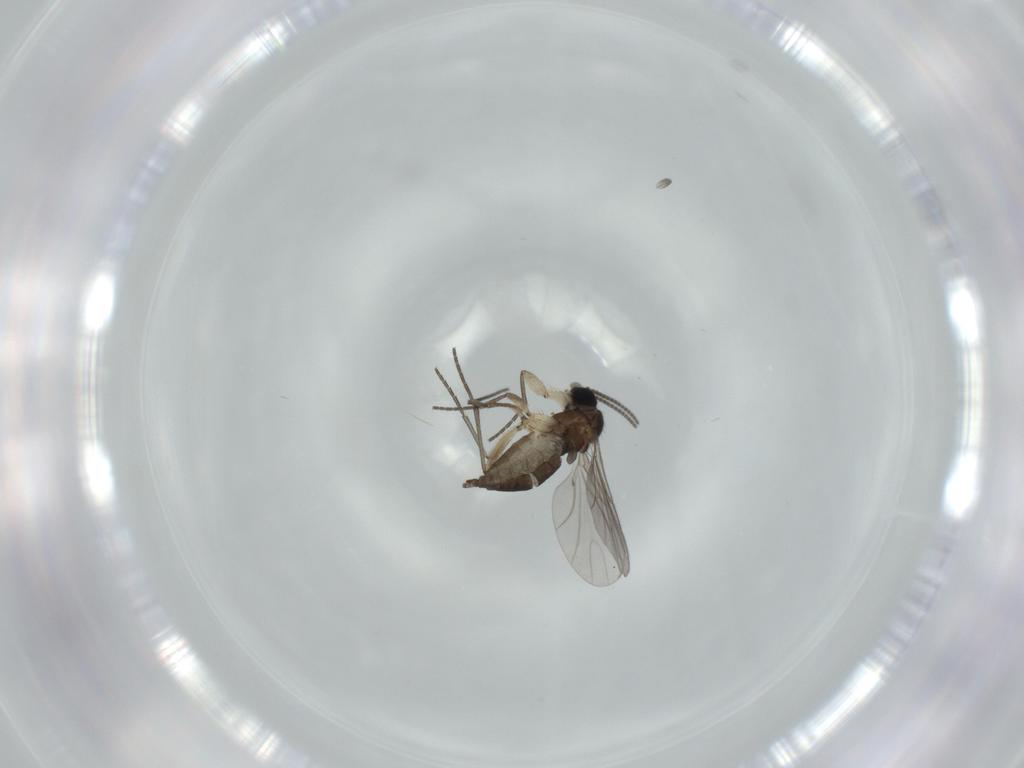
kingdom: Animalia
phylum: Arthropoda
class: Insecta
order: Diptera
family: Sciaridae
